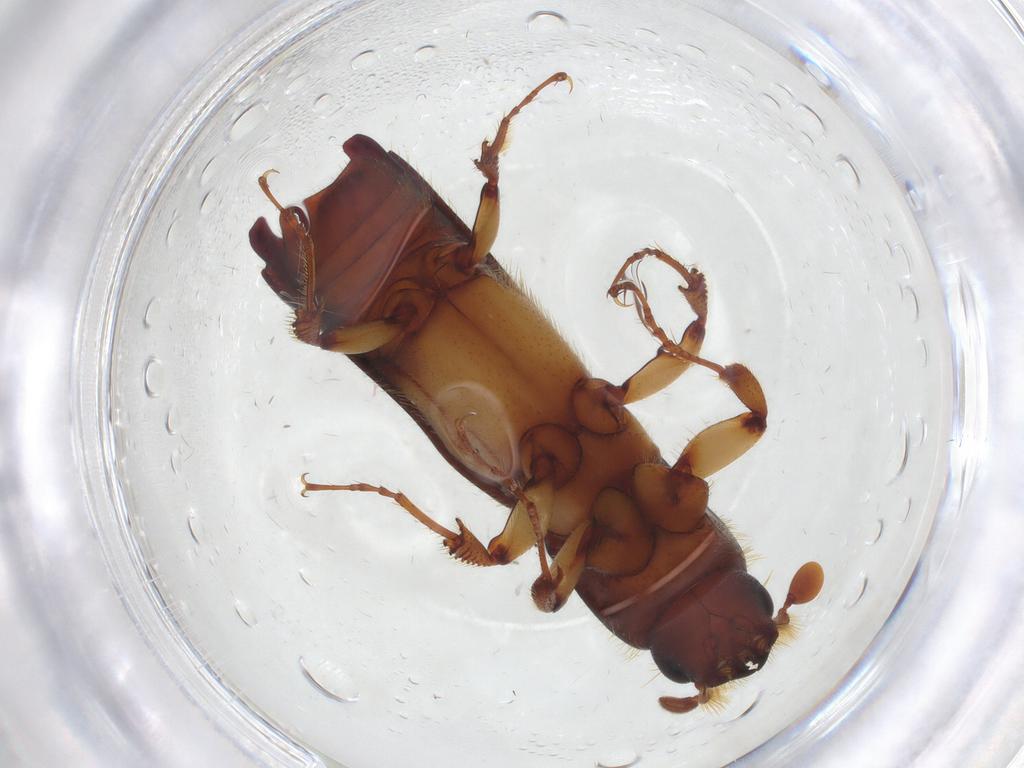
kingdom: Animalia
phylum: Arthropoda
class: Insecta
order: Coleoptera
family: Curculionidae
